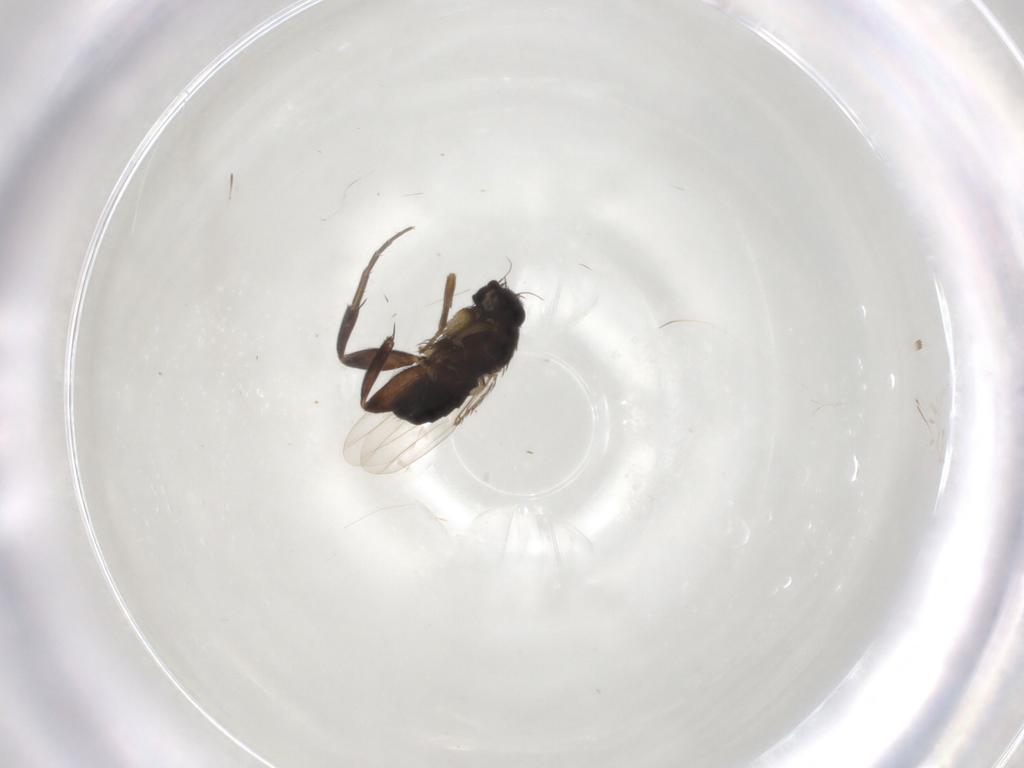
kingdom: Animalia
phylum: Arthropoda
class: Insecta
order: Diptera
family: Phoridae
